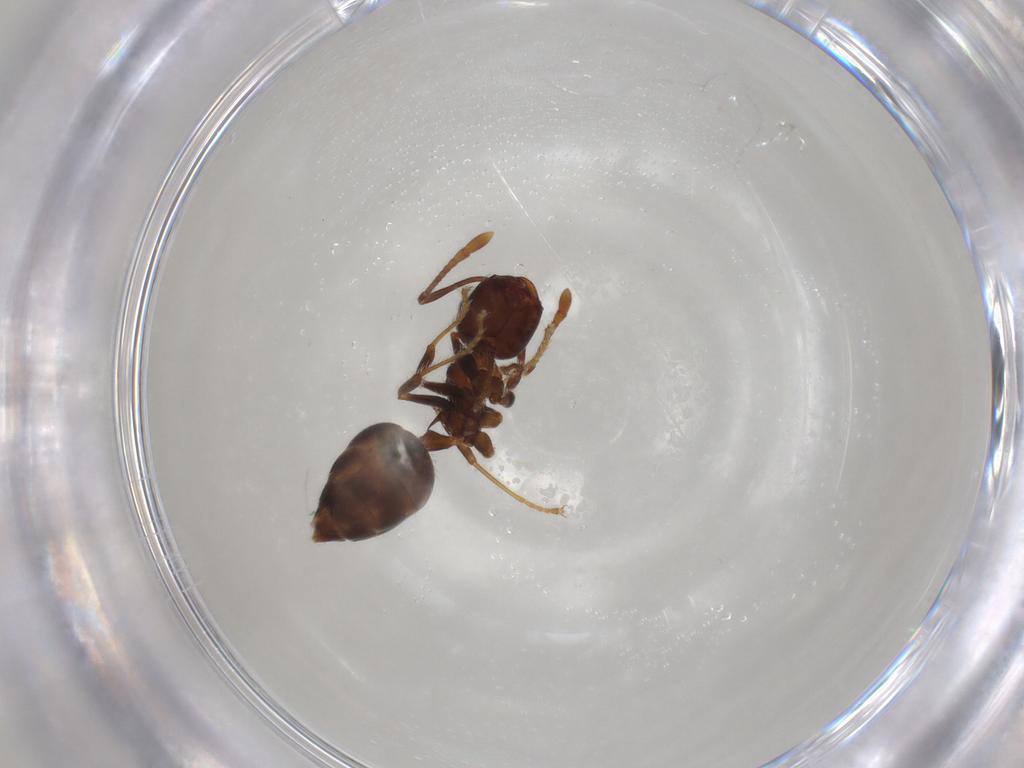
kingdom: Animalia
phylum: Arthropoda
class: Insecta
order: Hymenoptera
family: Formicidae
